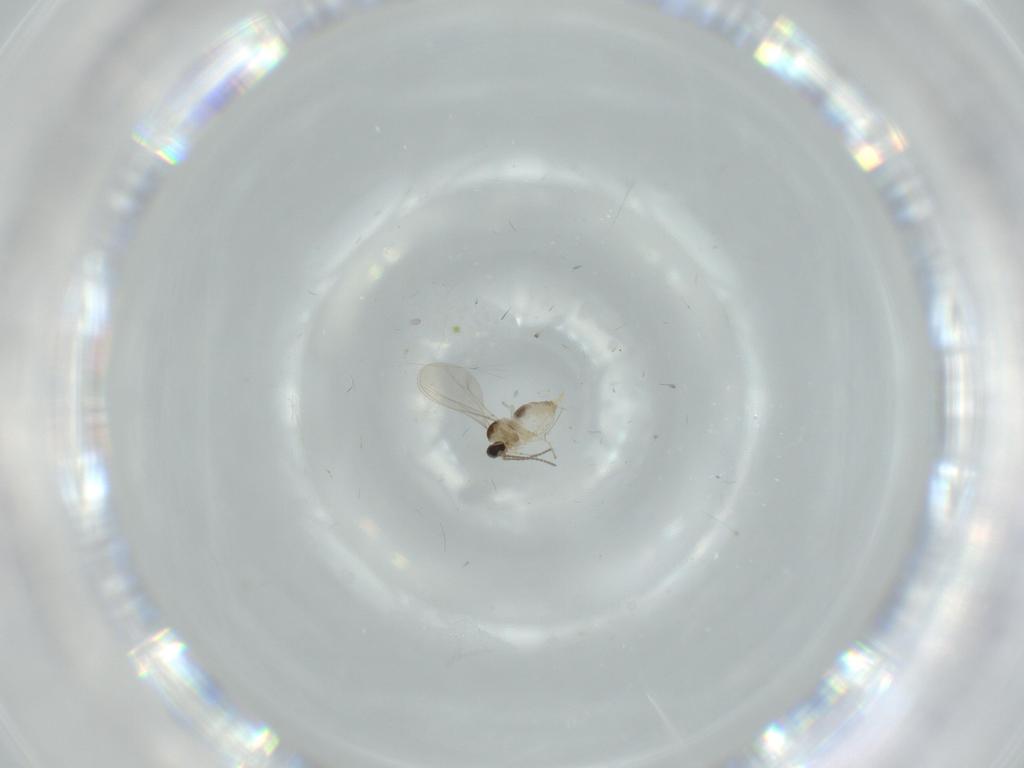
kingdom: Animalia
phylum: Arthropoda
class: Insecta
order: Diptera
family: Cecidomyiidae
